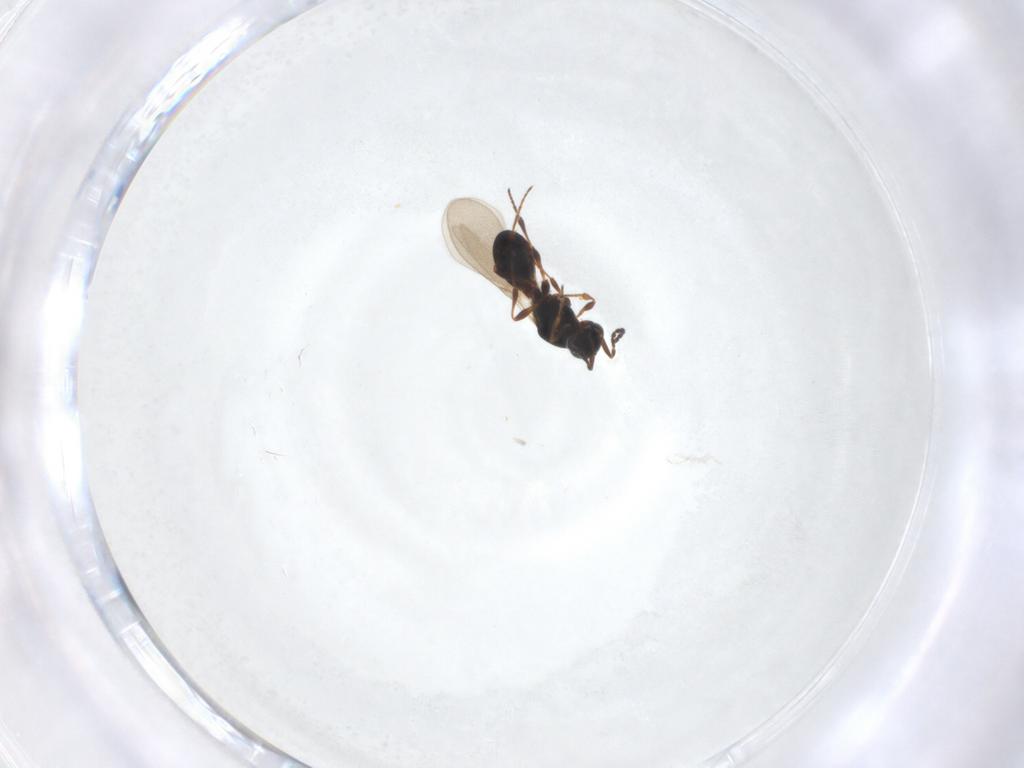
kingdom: Animalia
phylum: Arthropoda
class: Insecta
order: Hymenoptera
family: Platygastridae
